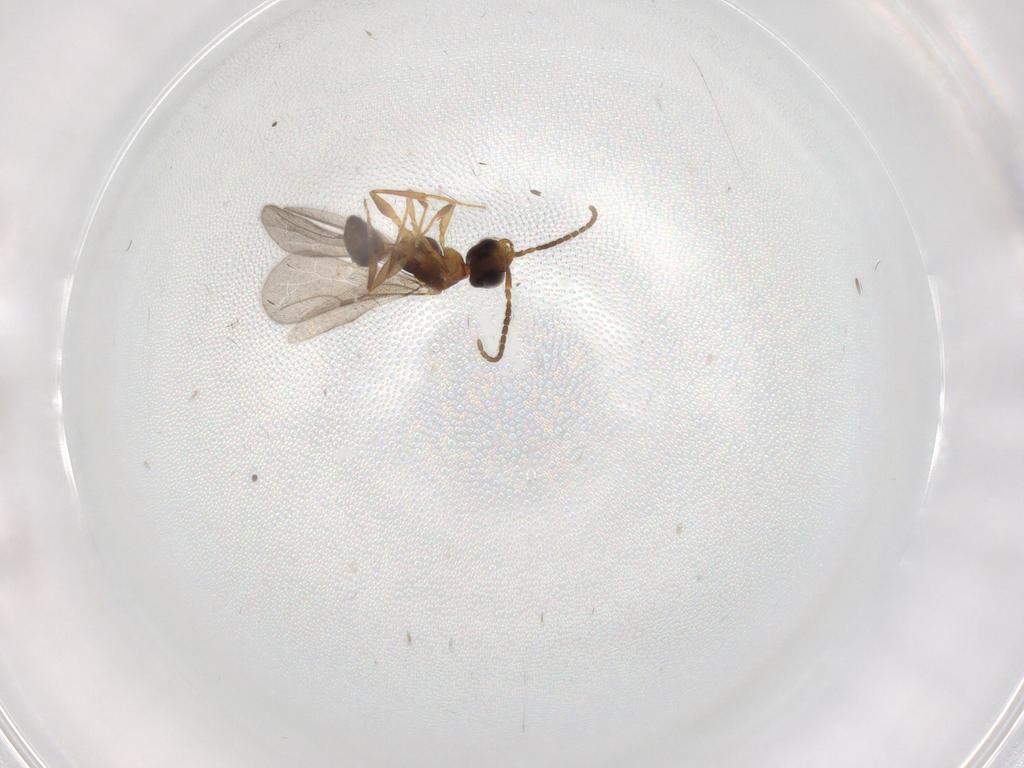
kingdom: Animalia
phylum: Arthropoda
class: Insecta
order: Hymenoptera
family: Bethylidae
